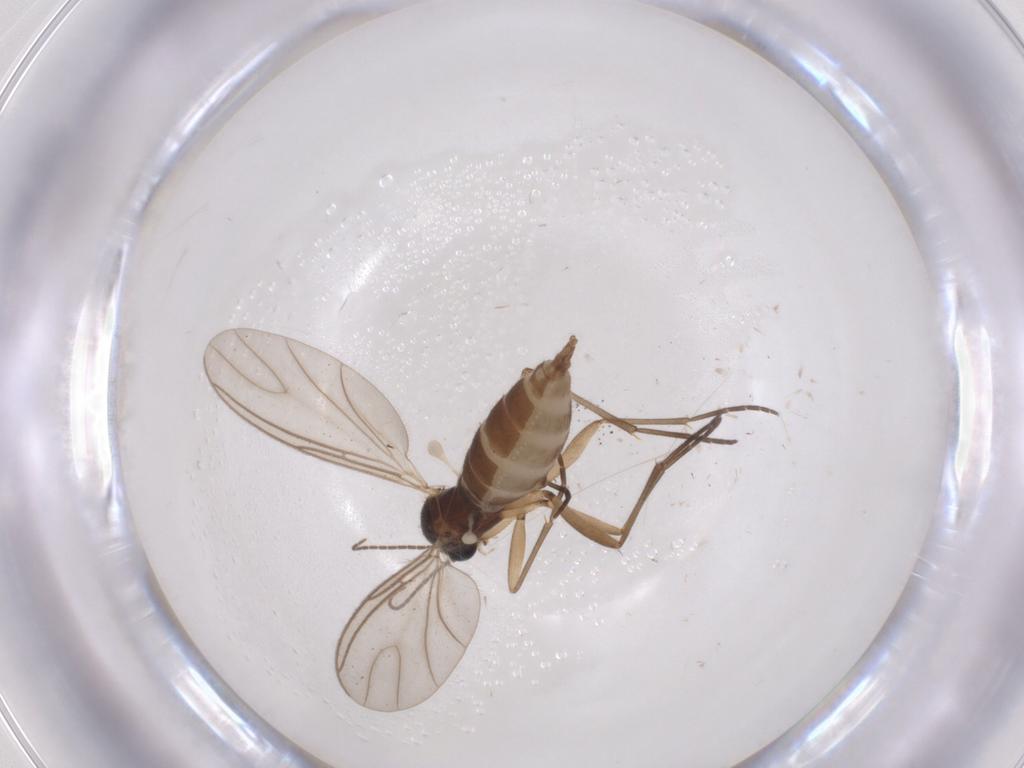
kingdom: Animalia
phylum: Arthropoda
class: Insecta
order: Diptera
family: Sciaridae
